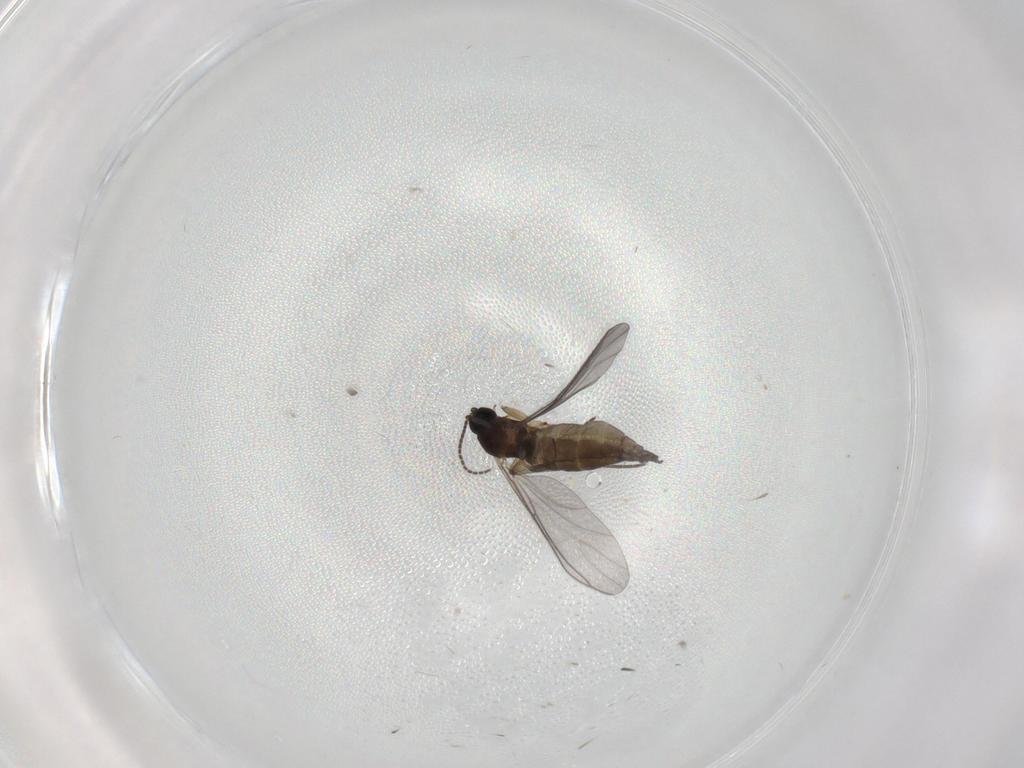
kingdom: Animalia
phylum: Arthropoda
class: Insecta
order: Diptera
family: Sciaridae
